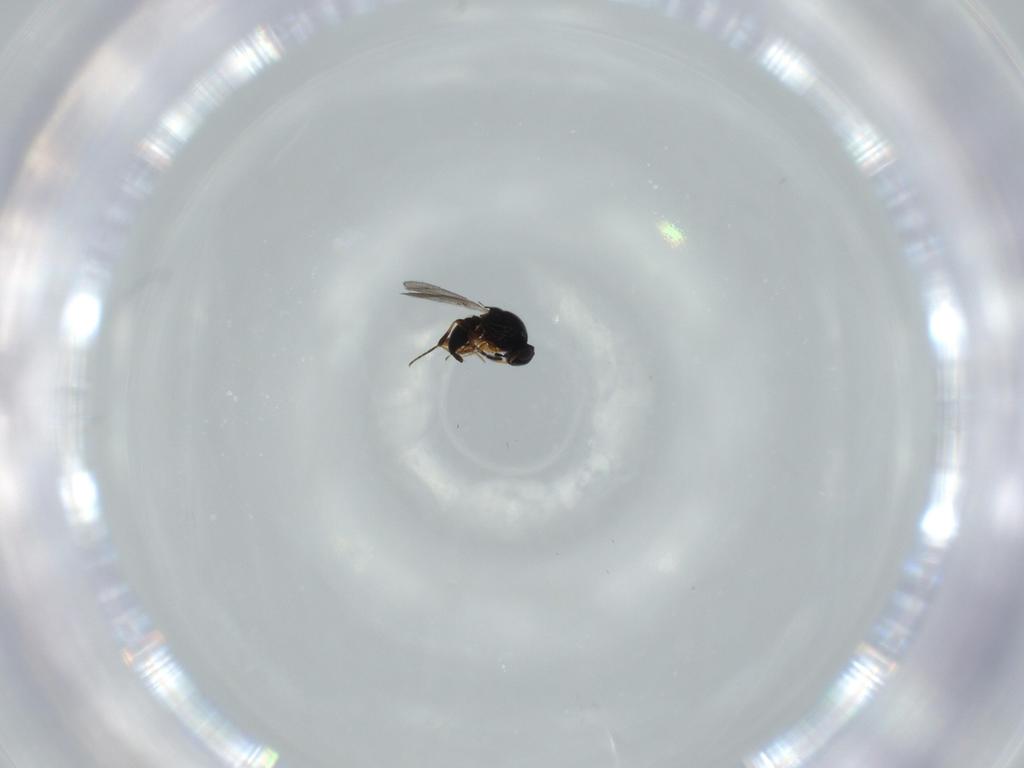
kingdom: Animalia
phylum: Arthropoda
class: Insecta
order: Hymenoptera
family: Platygastridae
